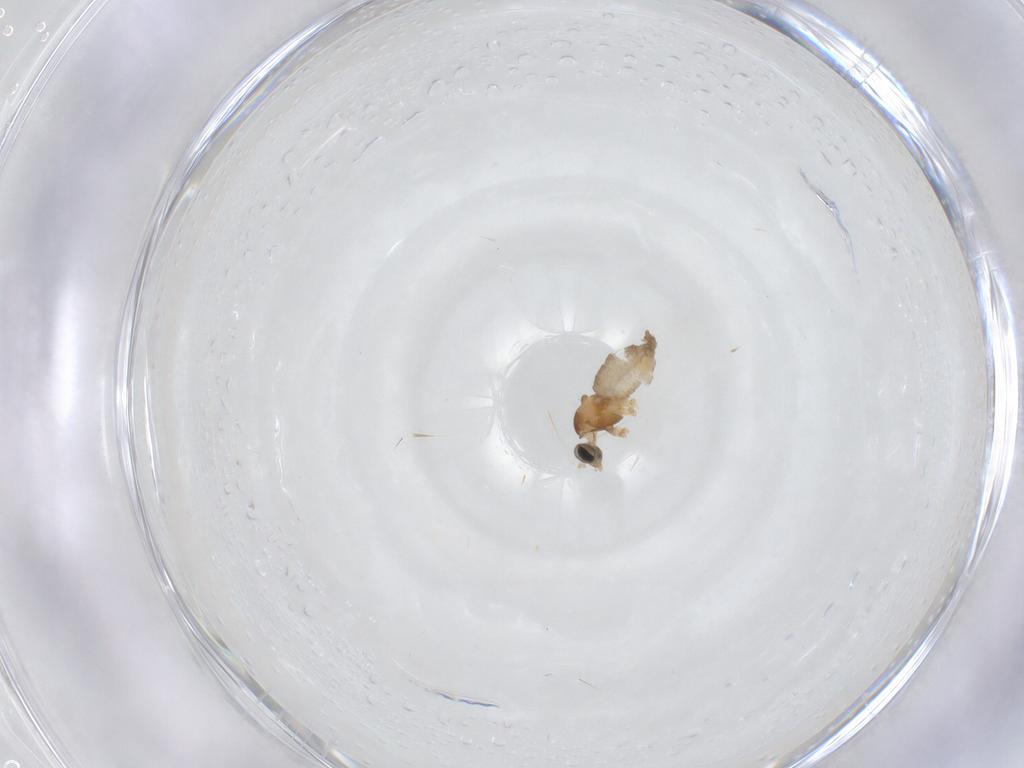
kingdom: Animalia
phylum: Arthropoda
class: Insecta
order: Diptera
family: Cecidomyiidae
